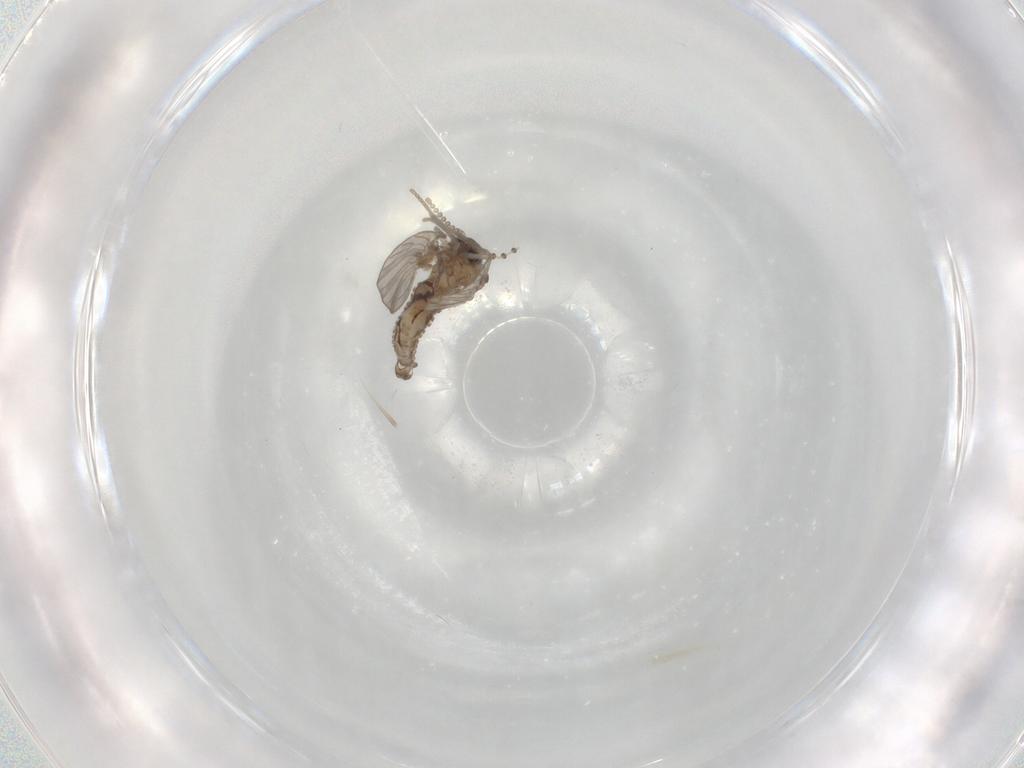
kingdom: Animalia
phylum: Arthropoda
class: Insecta
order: Diptera
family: Psychodidae
